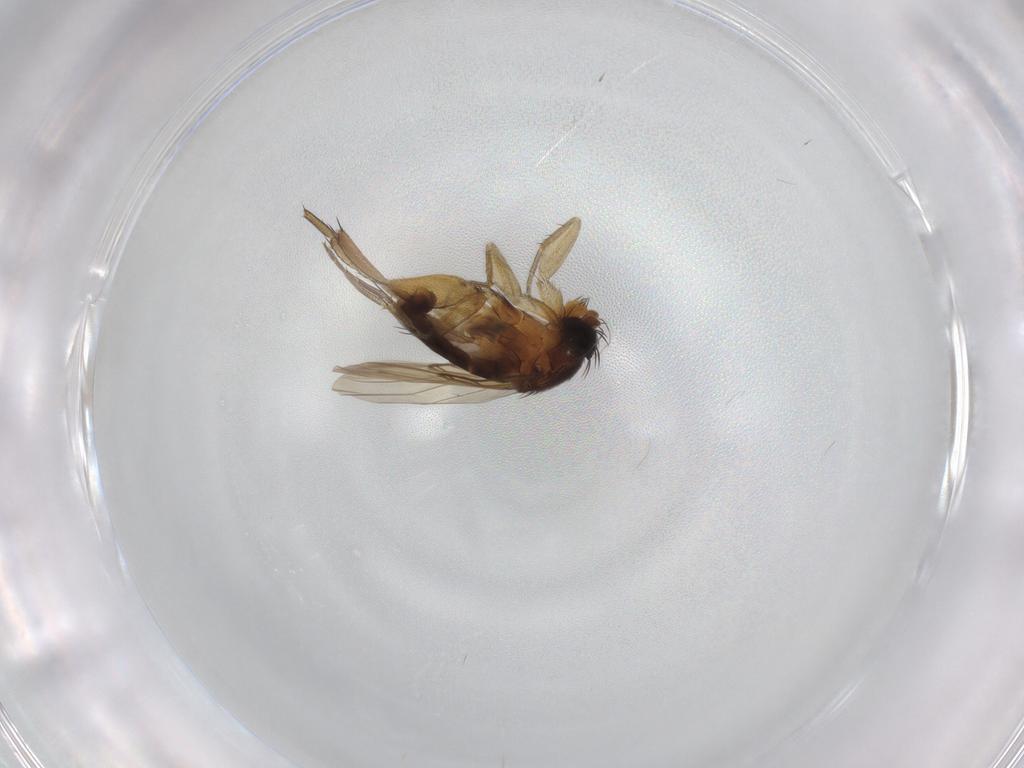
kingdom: Animalia
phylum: Arthropoda
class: Insecta
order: Diptera
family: Phoridae
